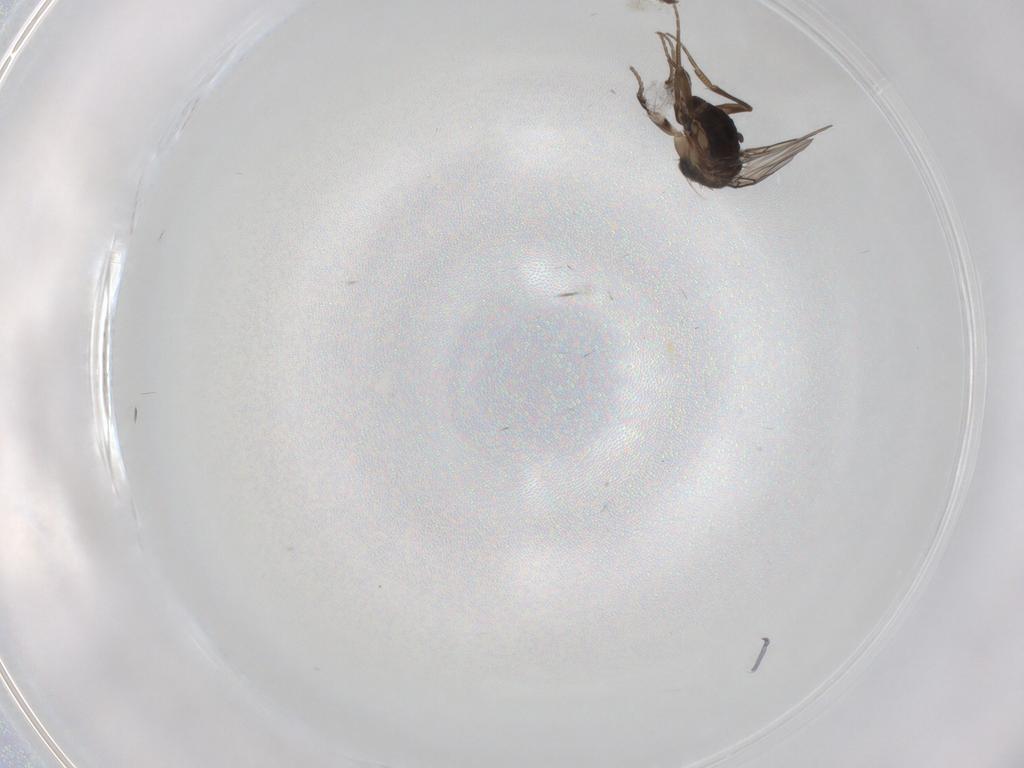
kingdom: Animalia
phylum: Arthropoda
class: Insecta
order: Diptera
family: Phoridae
